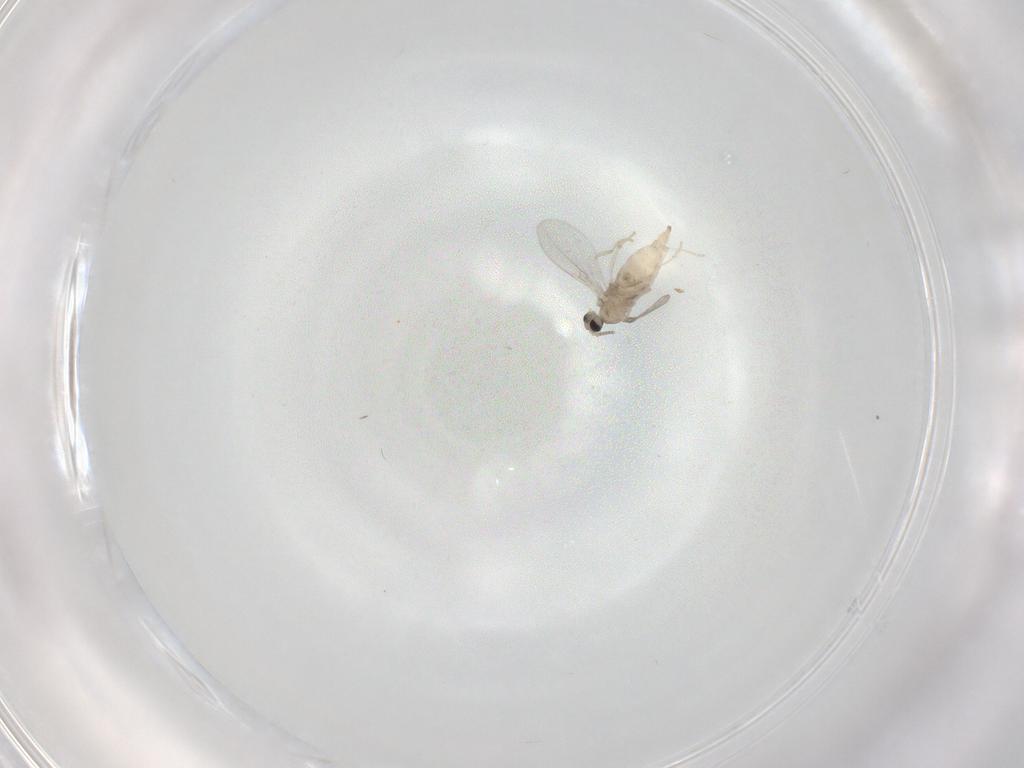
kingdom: Animalia
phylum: Arthropoda
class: Insecta
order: Diptera
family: Cecidomyiidae
